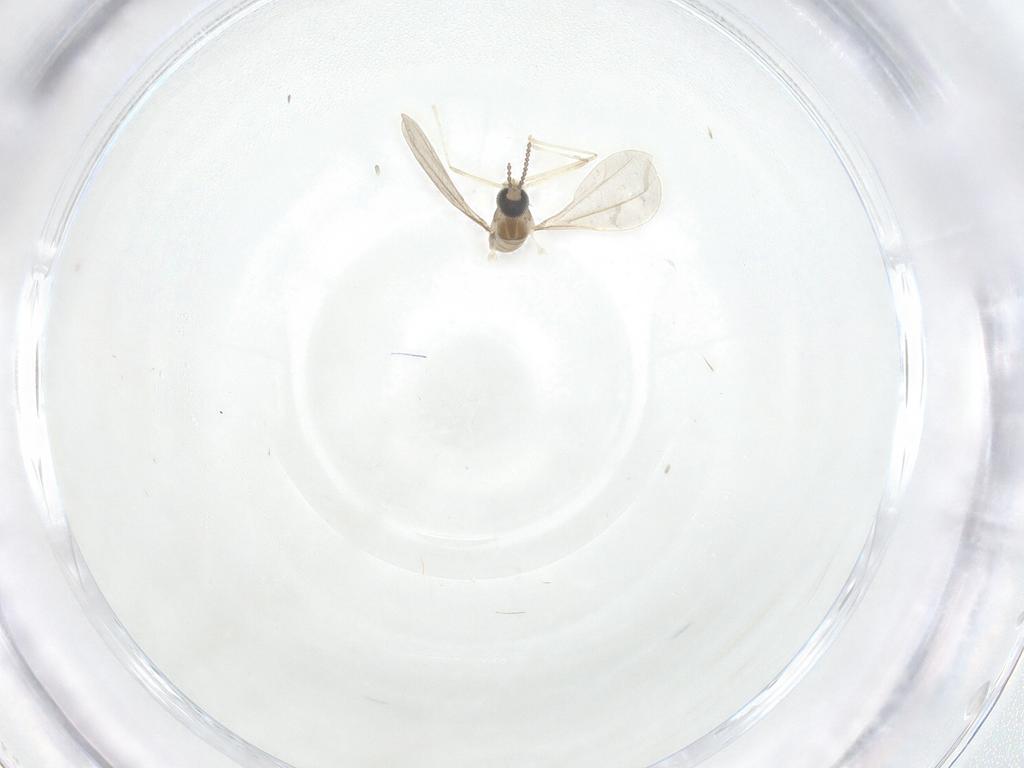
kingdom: Animalia
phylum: Arthropoda
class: Insecta
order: Diptera
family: Cecidomyiidae
